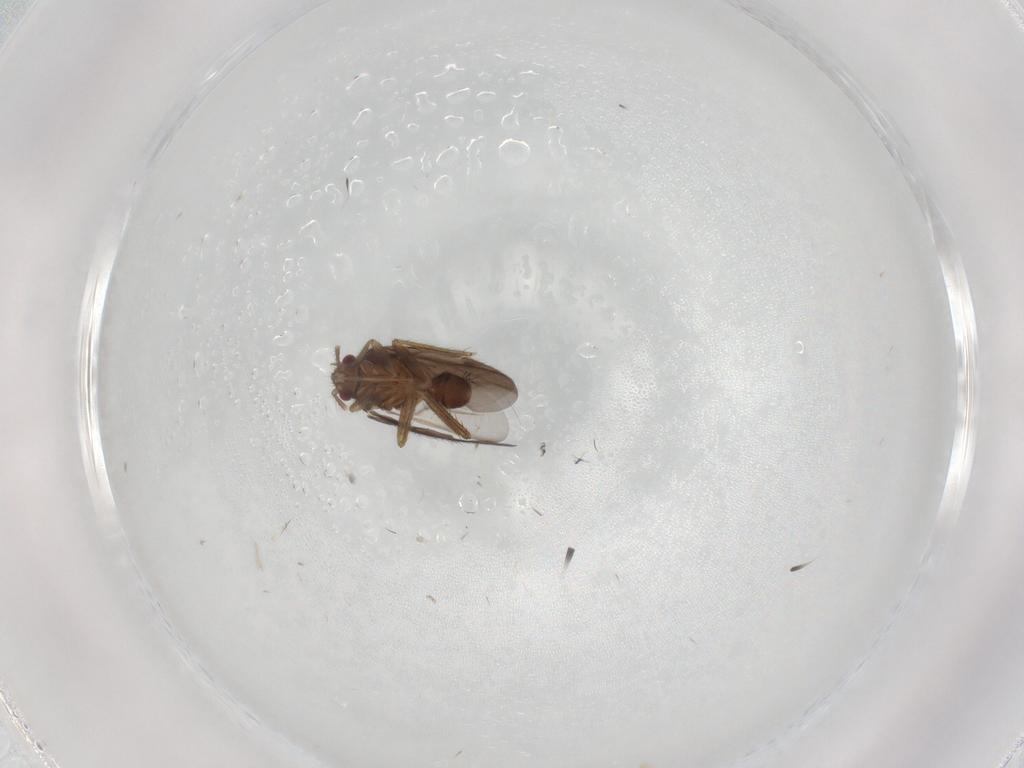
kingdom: Animalia
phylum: Arthropoda
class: Insecta
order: Hemiptera
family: Ceratocombidae
